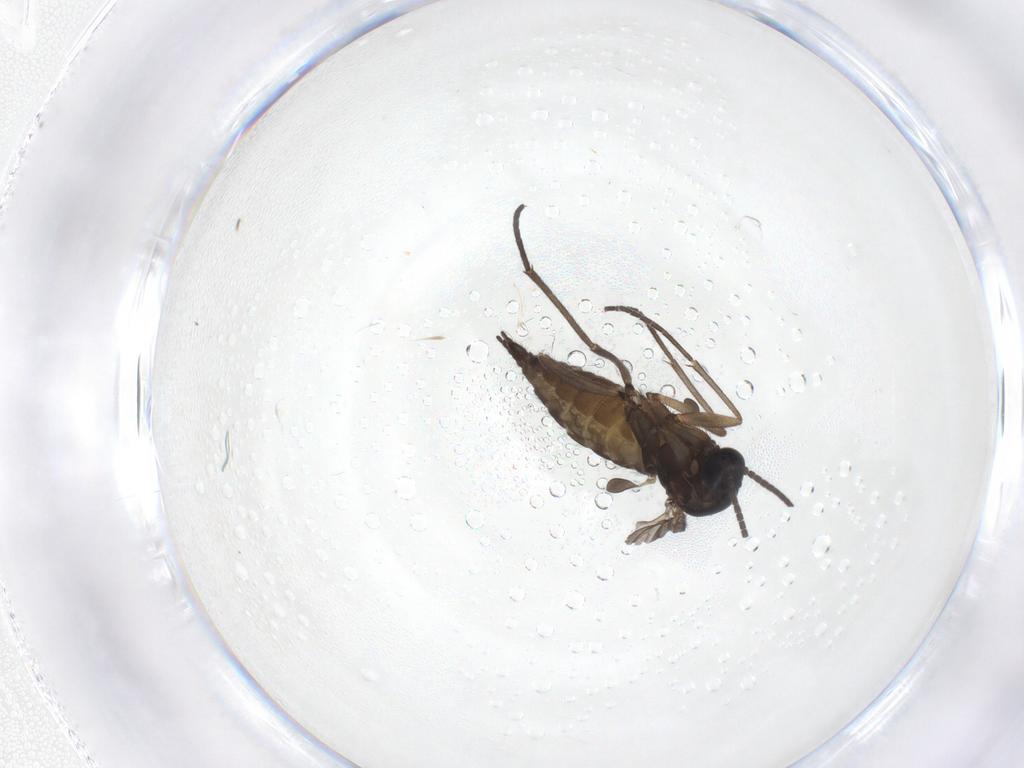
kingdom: Animalia
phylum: Arthropoda
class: Insecta
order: Diptera
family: Sciaridae
